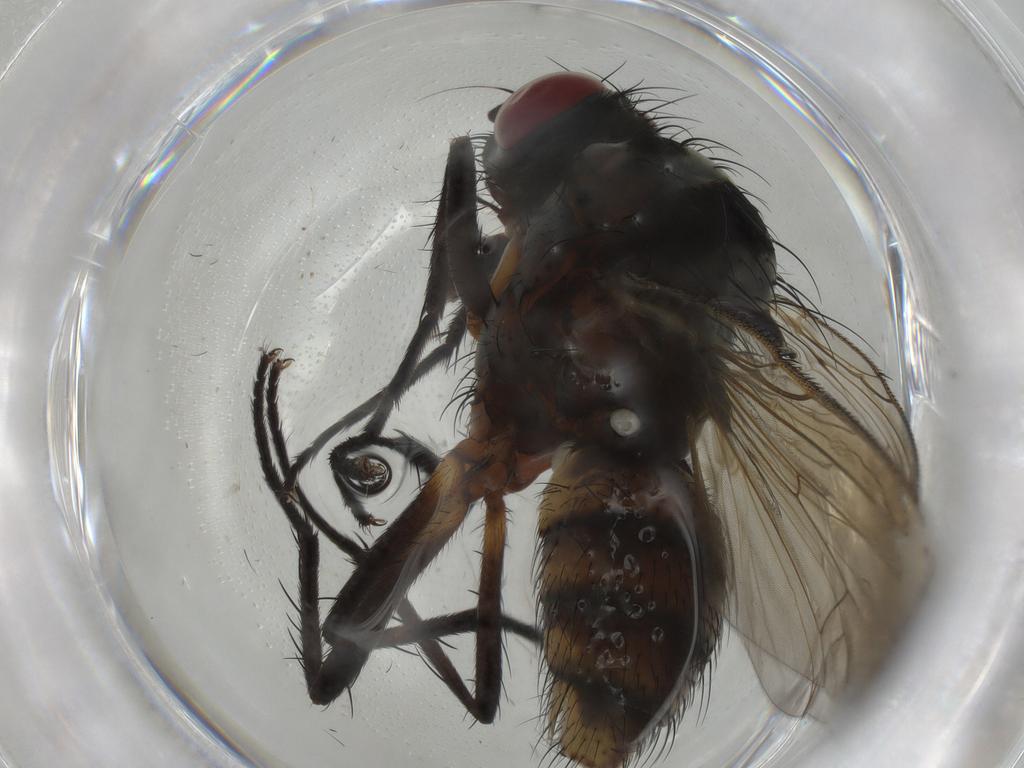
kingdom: Animalia
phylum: Arthropoda
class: Insecta
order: Diptera
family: Anthomyiidae
